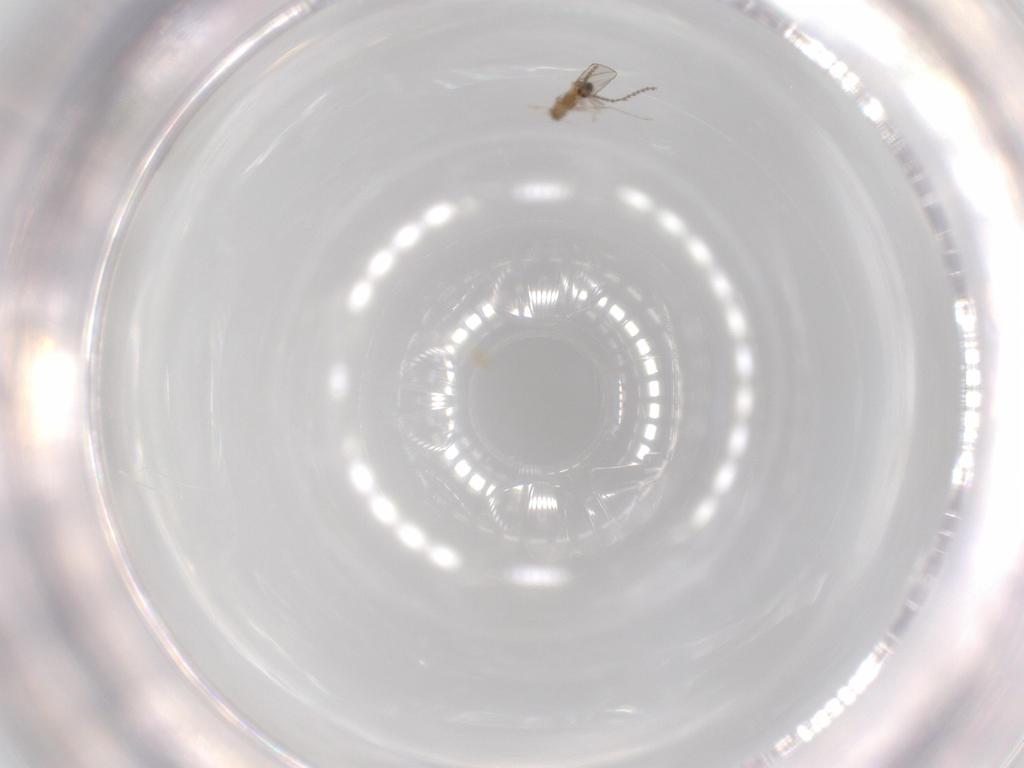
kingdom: Animalia
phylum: Arthropoda
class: Insecta
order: Diptera
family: Cecidomyiidae
